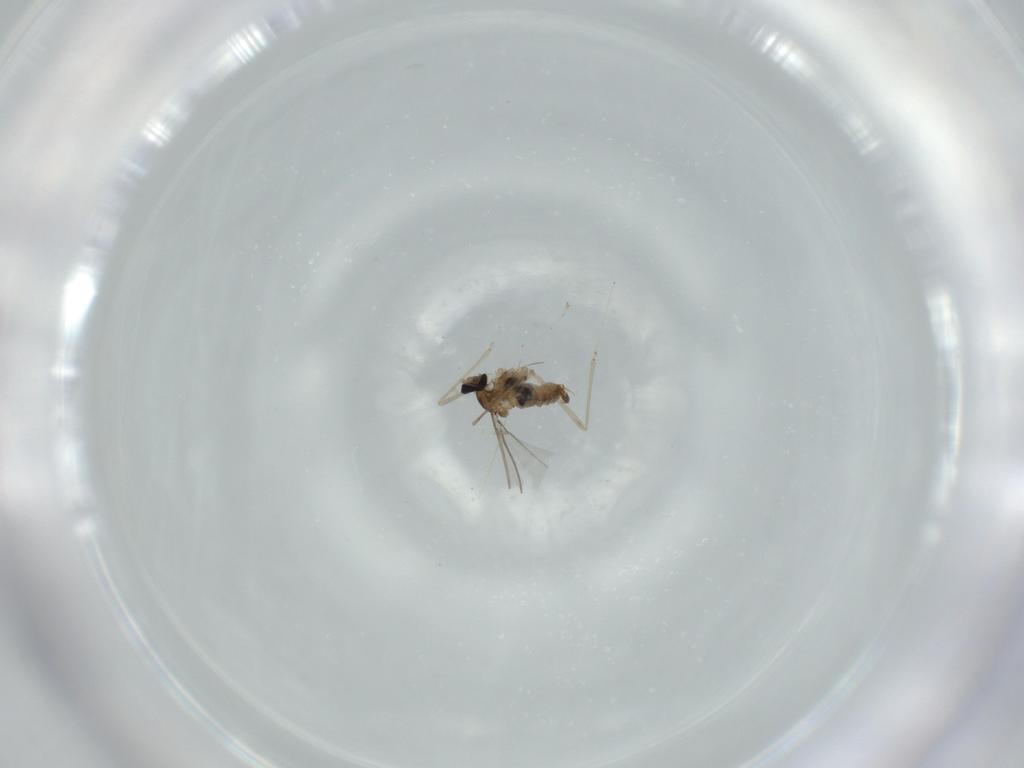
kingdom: Animalia
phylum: Arthropoda
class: Insecta
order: Diptera
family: Cecidomyiidae
